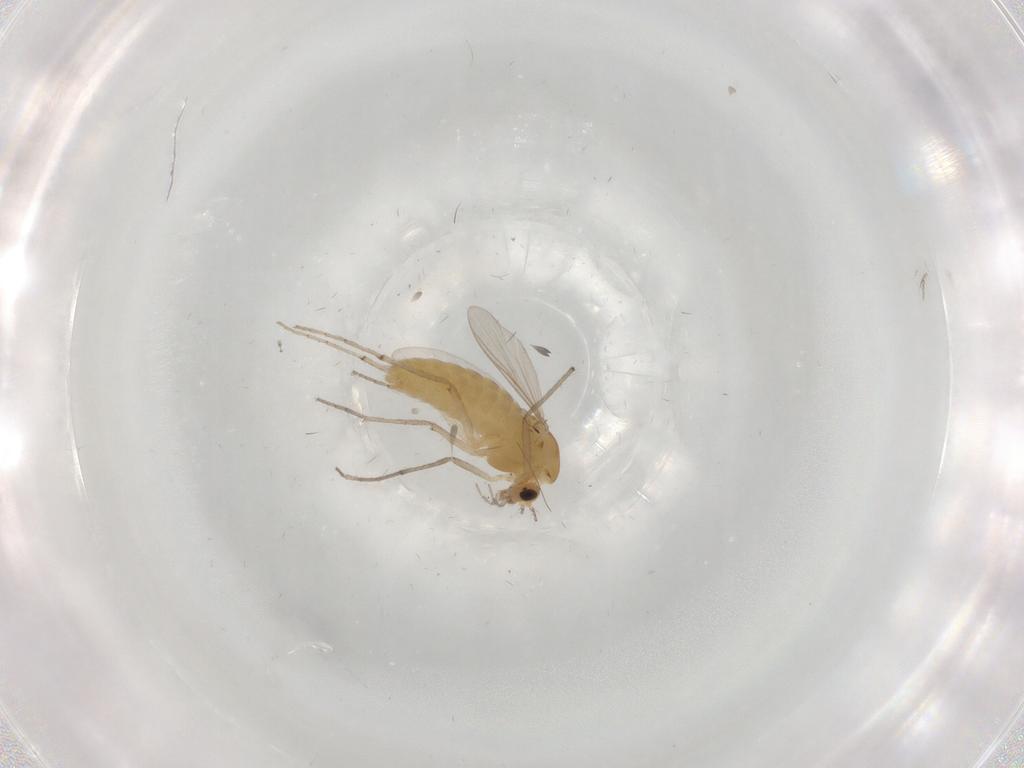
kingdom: Animalia
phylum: Arthropoda
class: Insecta
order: Diptera
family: Chironomidae
